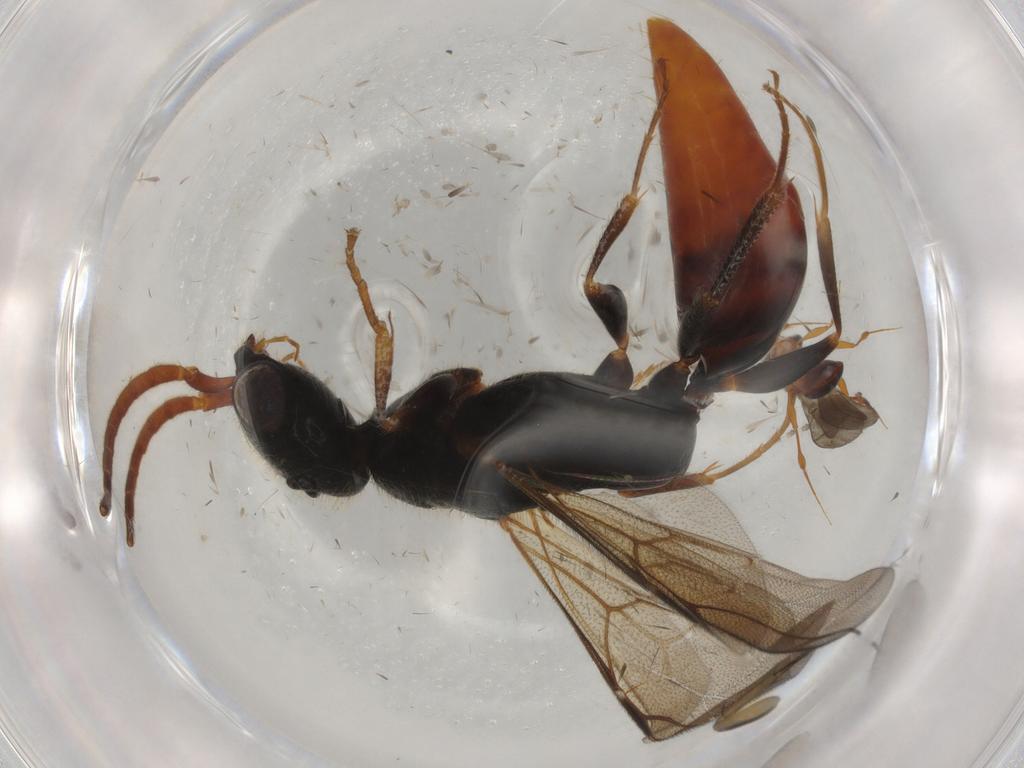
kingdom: Animalia
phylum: Arthropoda
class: Insecta
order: Hymenoptera
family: Bethylidae
